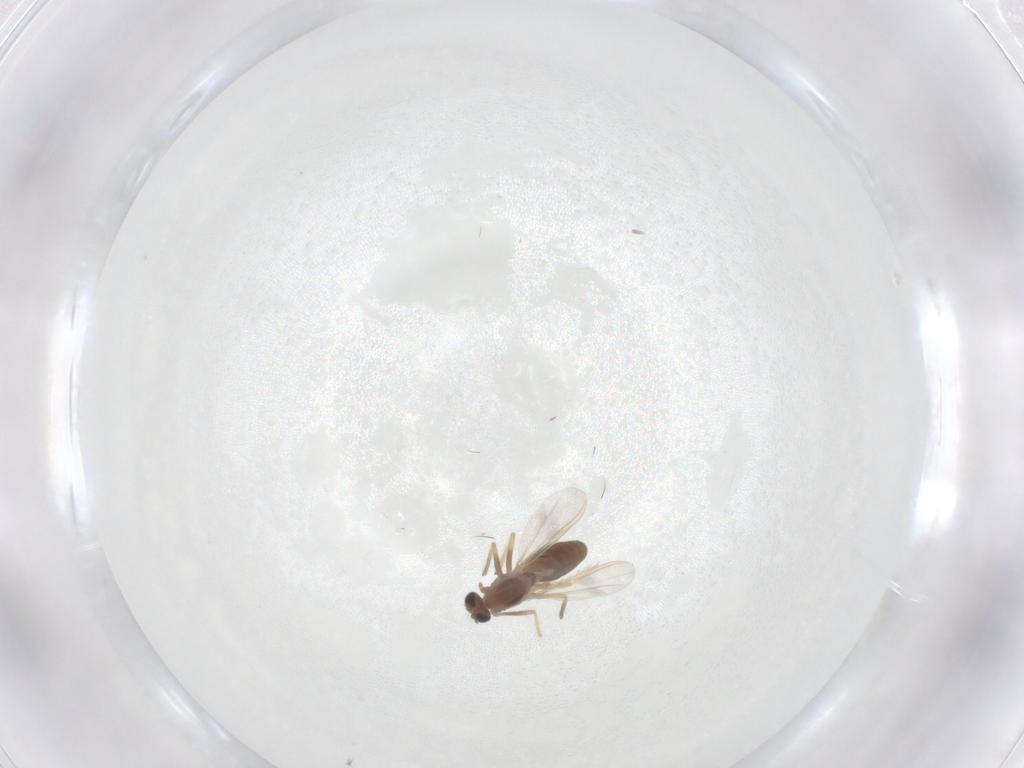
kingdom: Animalia
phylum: Arthropoda
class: Insecta
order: Diptera
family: Chironomidae
